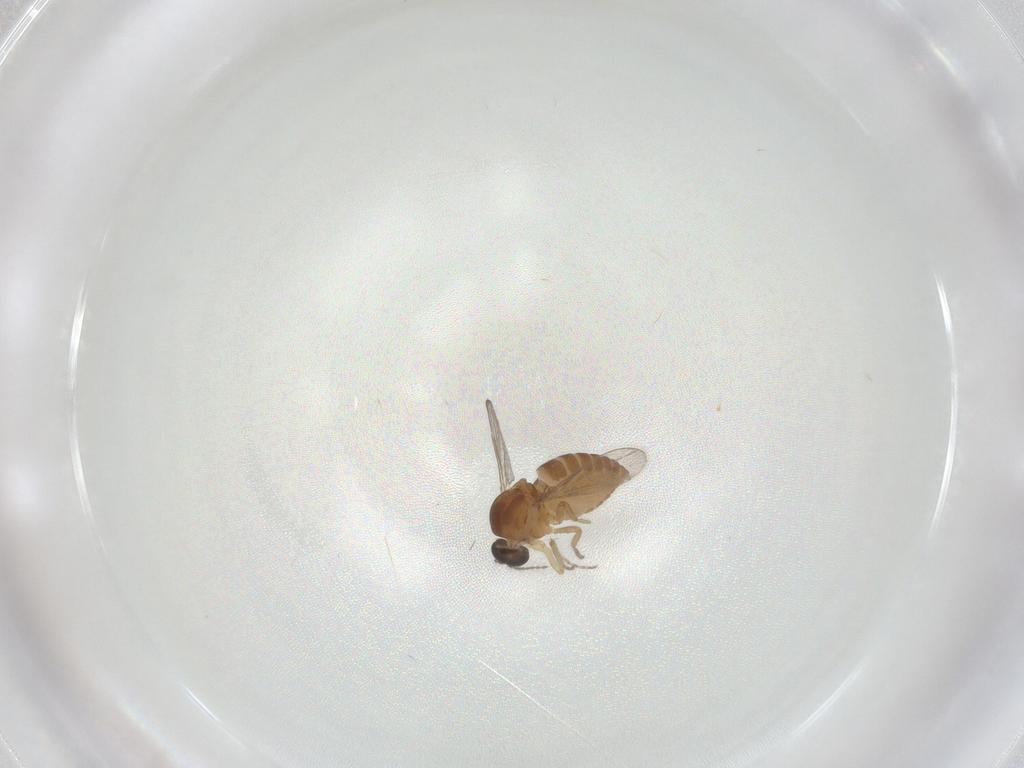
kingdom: Animalia
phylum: Arthropoda
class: Insecta
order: Diptera
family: Sciaridae
